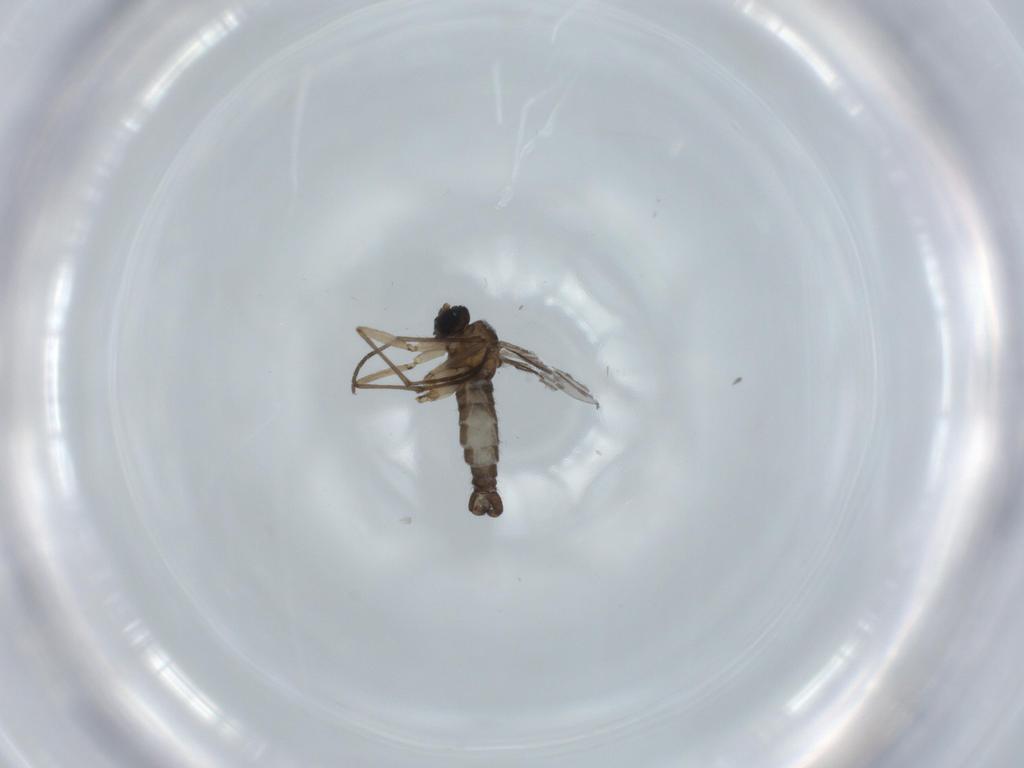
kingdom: Animalia
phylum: Arthropoda
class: Insecta
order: Diptera
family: Sciaridae
